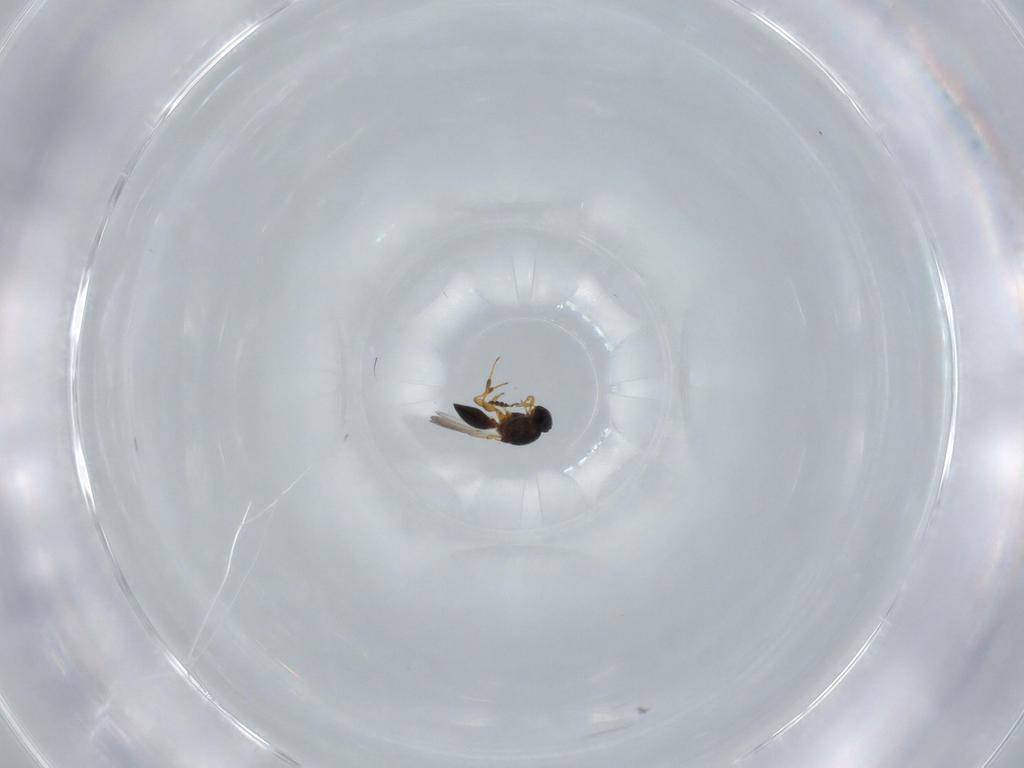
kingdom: Animalia
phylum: Arthropoda
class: Insecta
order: Hymenoptera
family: Platygastridae
